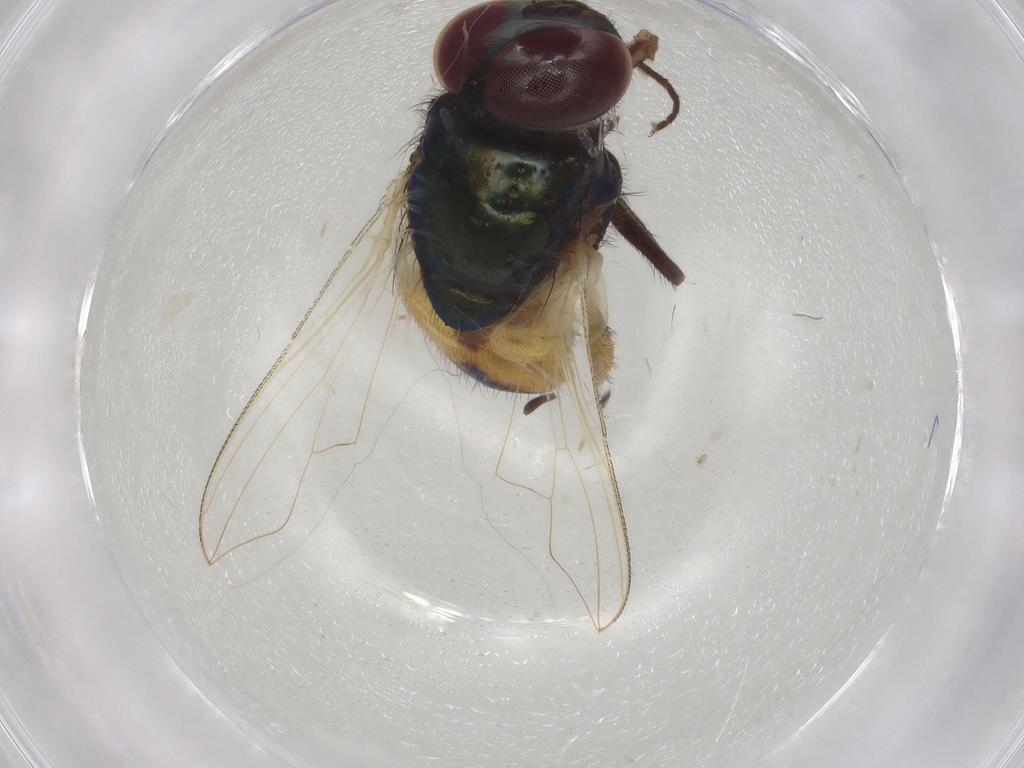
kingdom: Animalia
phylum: Arthropoda
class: Insecta
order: Diptera
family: Ceratopogonidae
